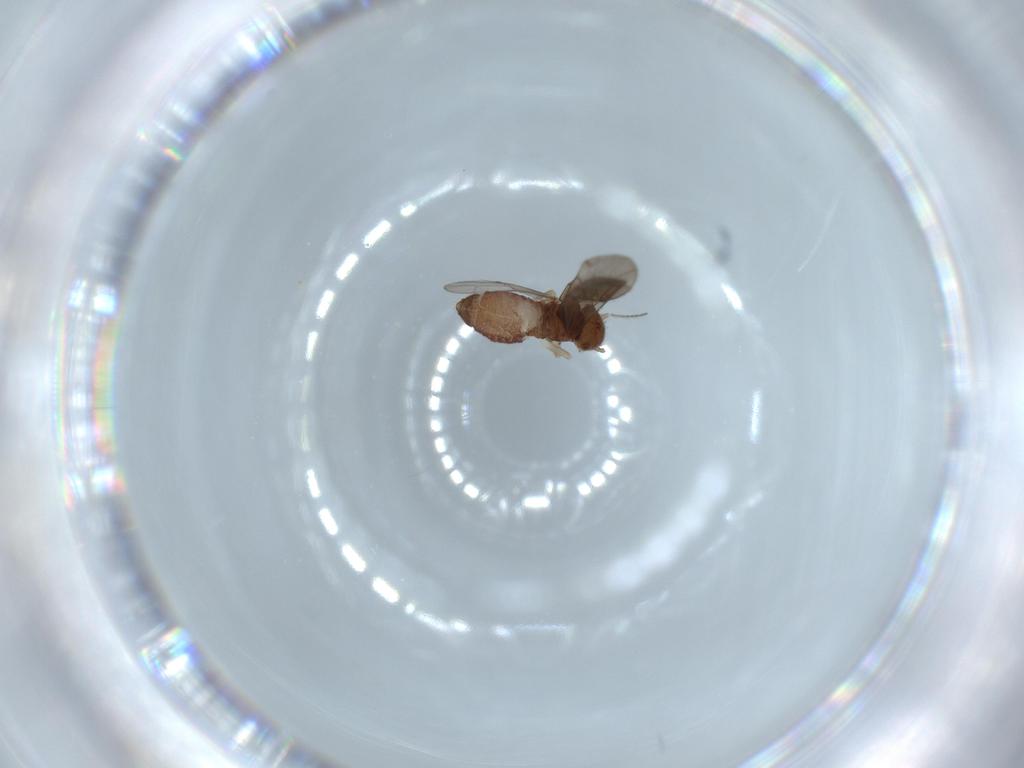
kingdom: Animalia
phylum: Arthropoda
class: Insecta
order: Psocodea
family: Ectopsocidae
